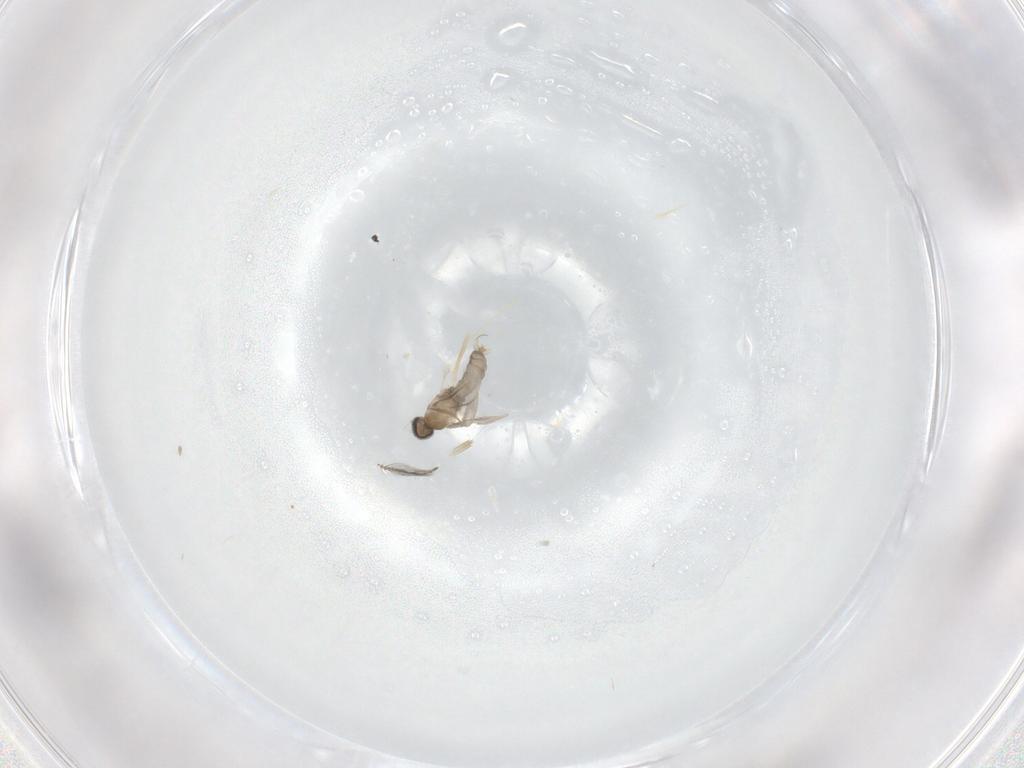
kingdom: Animalia
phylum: Arthropoda
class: Insecta
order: Diptera
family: Cecidomyiidae
